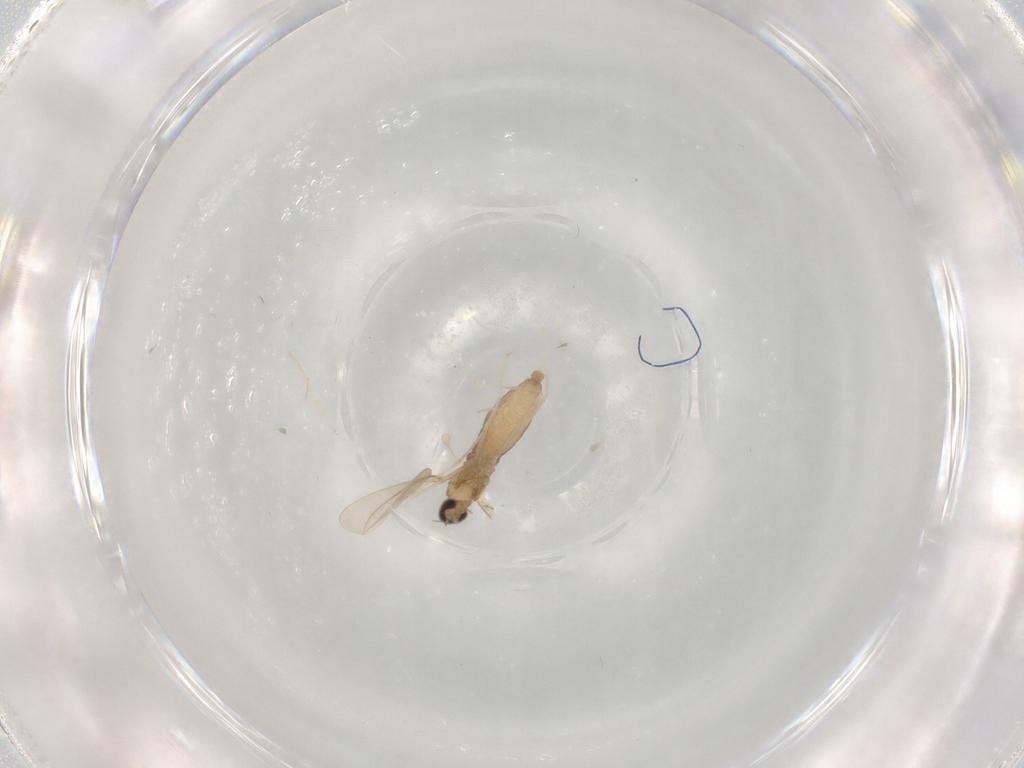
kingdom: Animalia
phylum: Arthropoda
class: Insecta
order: Diptera
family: Cecidomyiidae
